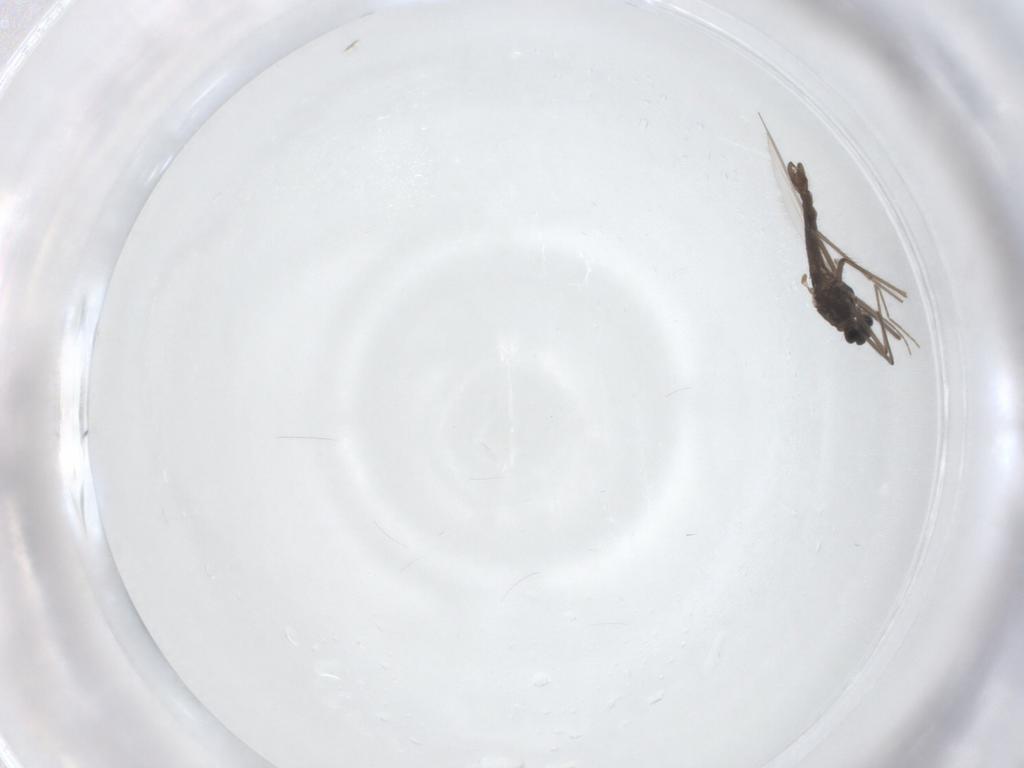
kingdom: Animalia
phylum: Arthropoda
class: Insecta
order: Diptera
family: Chironomidae
